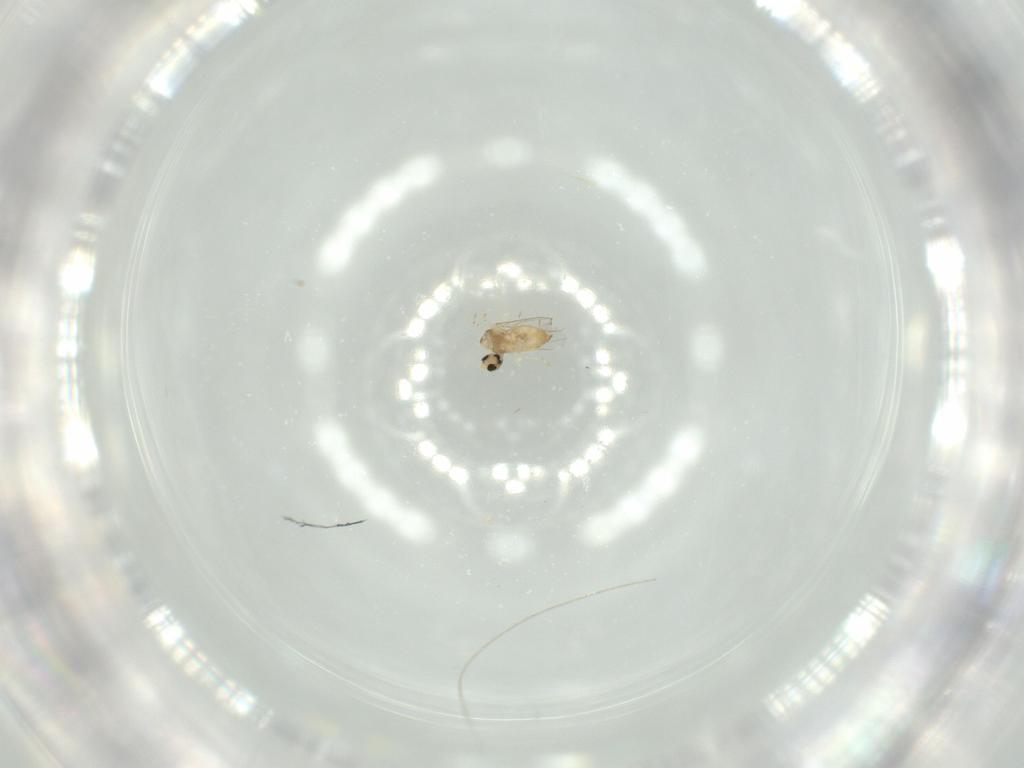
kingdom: Animalia
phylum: Arthropoda
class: Insecta
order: Diptera
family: Cecidomyiidae
